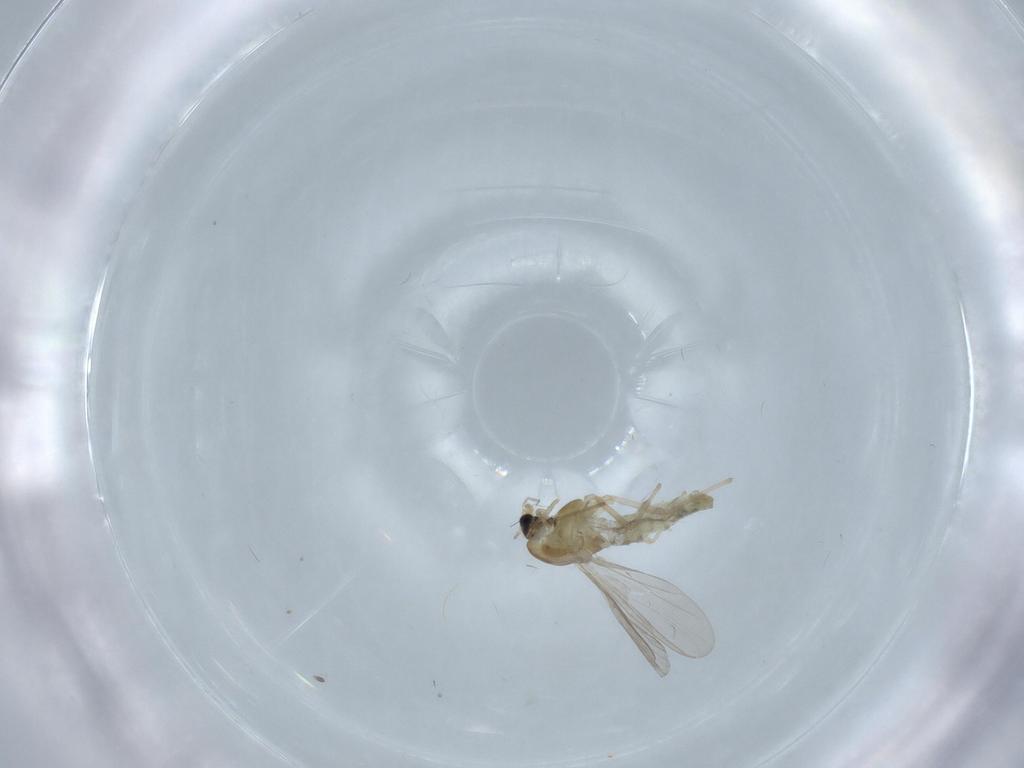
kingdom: Animalia
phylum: Arthropoda
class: Insecta
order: Diptera
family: Chironomidae
